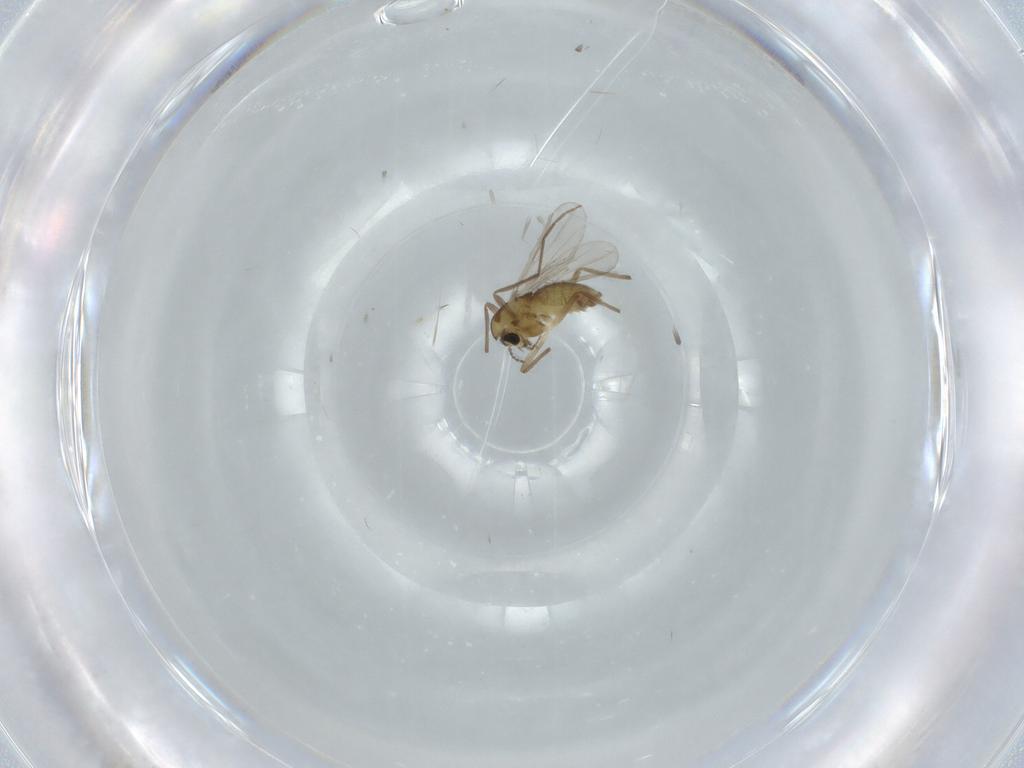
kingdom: Animalia
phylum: Arthropoda
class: Insecta
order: Diptera
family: Chironomidae
